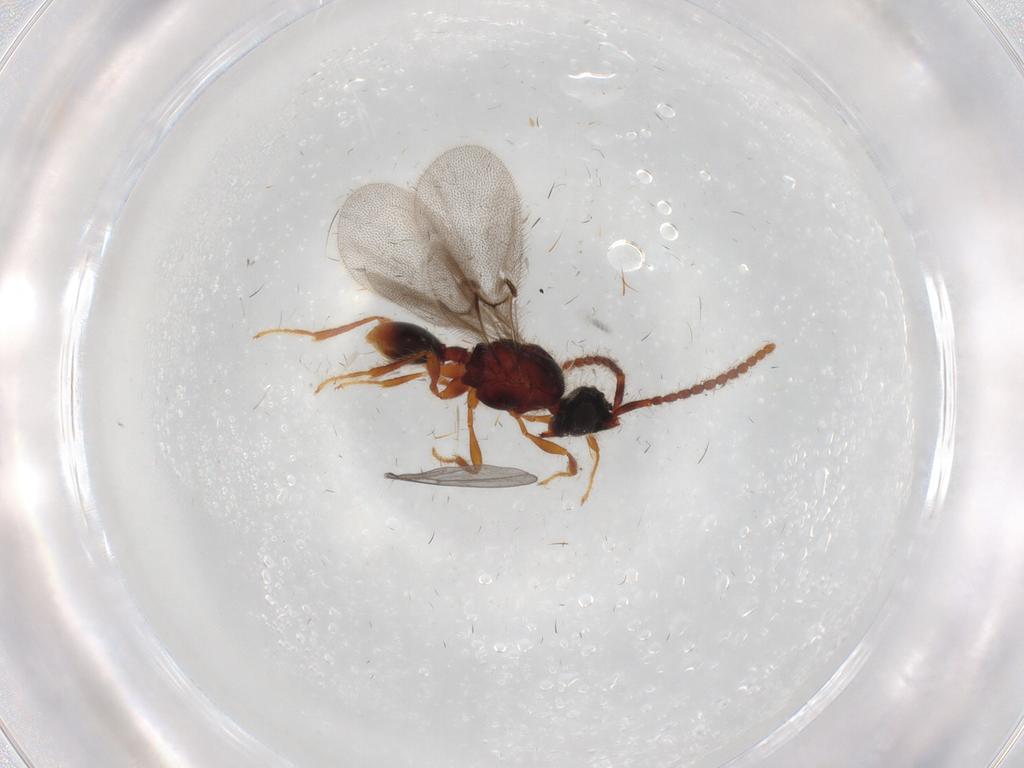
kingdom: Animalia
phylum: Arthropoda
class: Insecta
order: Hymenoptera
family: Diapriidae
